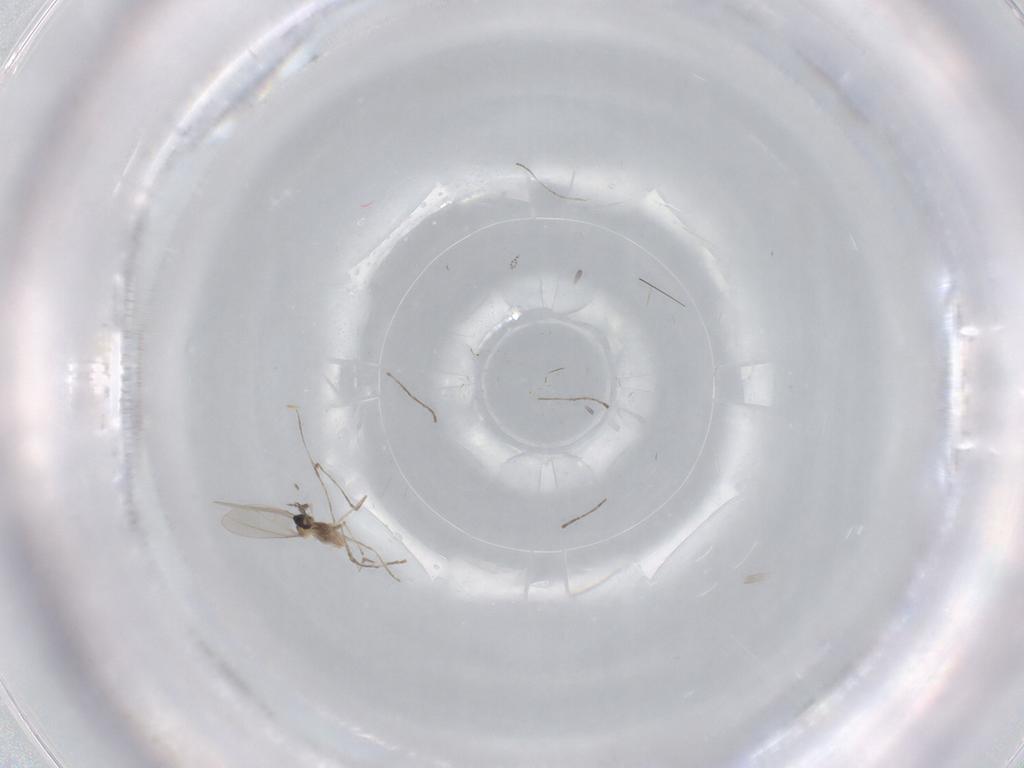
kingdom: Animalia
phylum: Arthropoda
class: Insecta
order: Diptera
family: Cecidomyiidae
